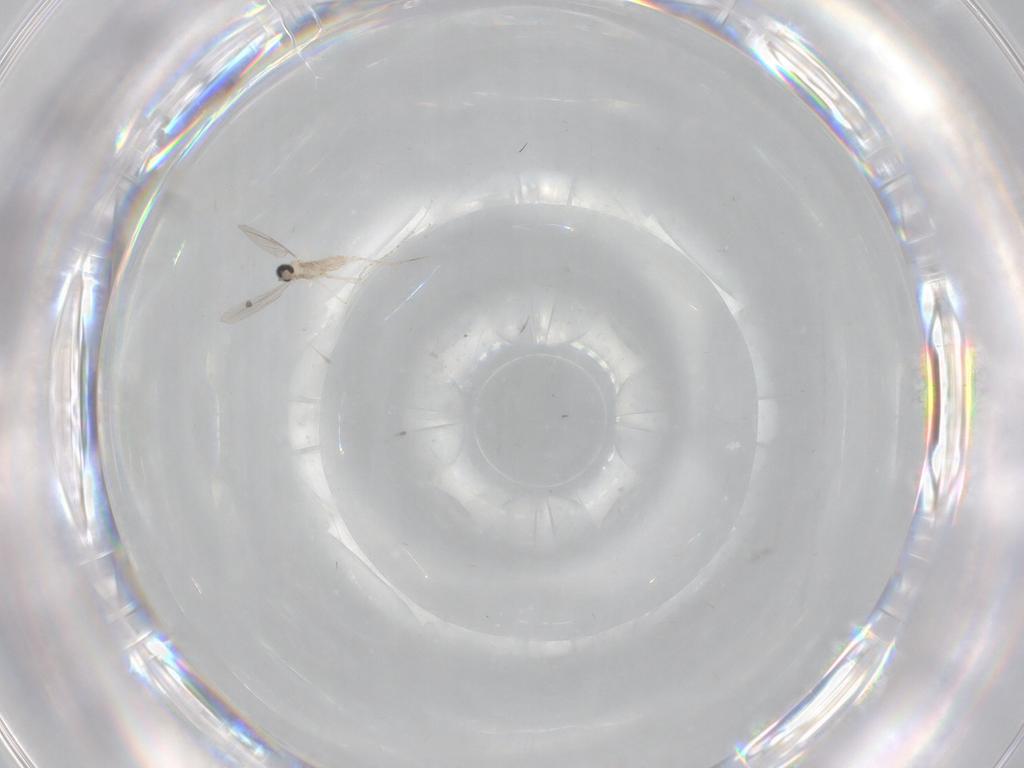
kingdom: Animalia
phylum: Arthropoda
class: Insecta
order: Diptera
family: Cecidomyiidae
